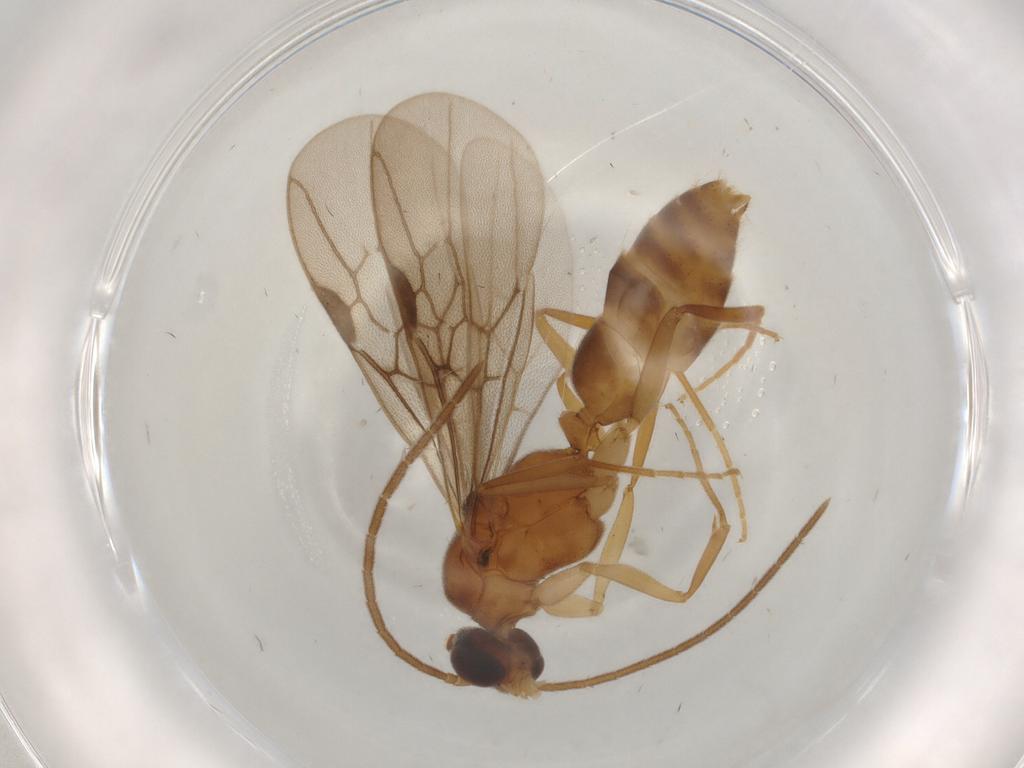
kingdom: Animalia
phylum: Arthropoda
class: Insecta
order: Hymenoptera
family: Formicidae
